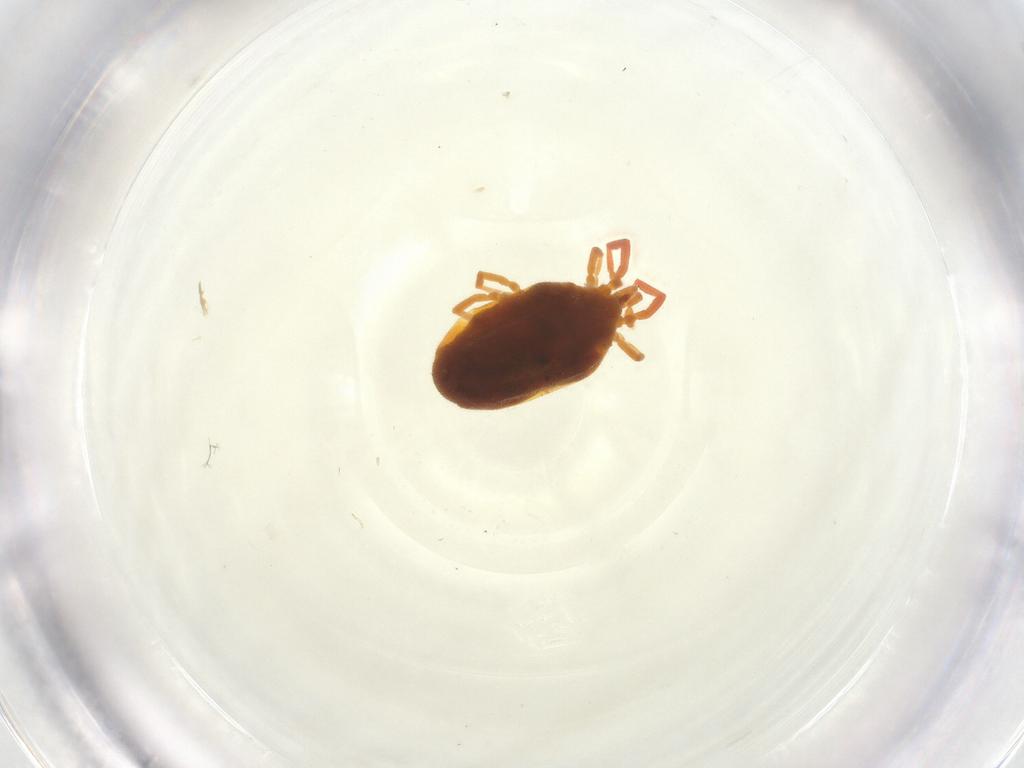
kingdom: Animalia
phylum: Arthropoda
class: Arachnida
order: Trombidiformes
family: Erythraeidae
